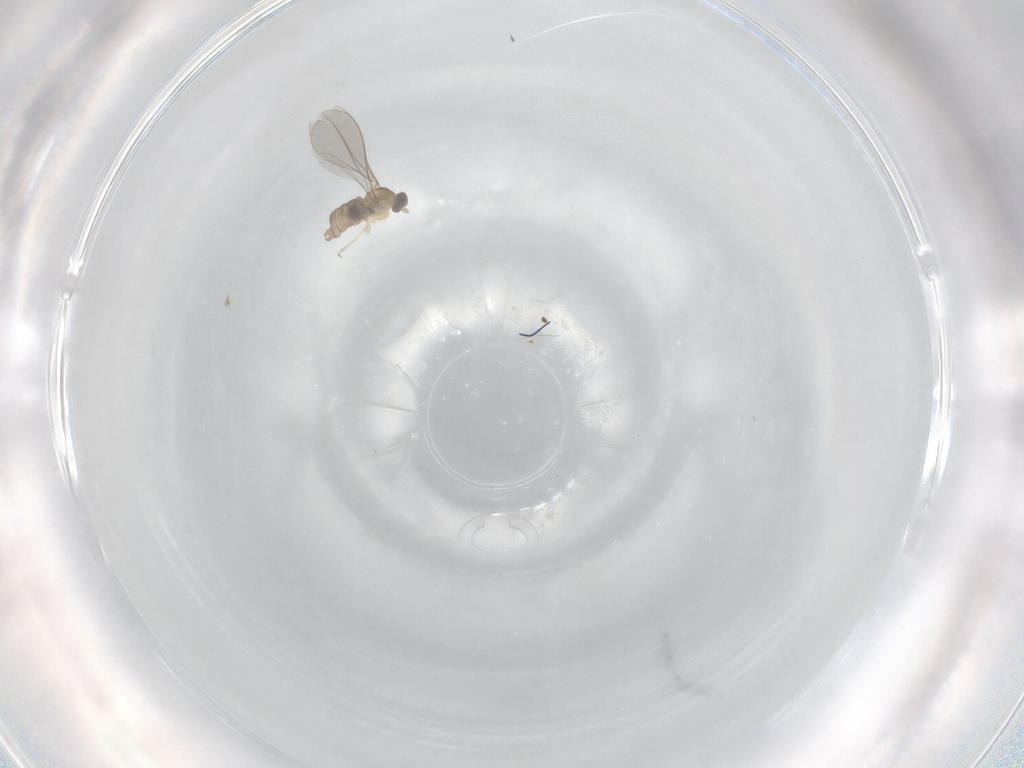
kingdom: Animalia
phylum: Arthropoda
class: Insecta
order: Diptera
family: Cecidomyiidae
